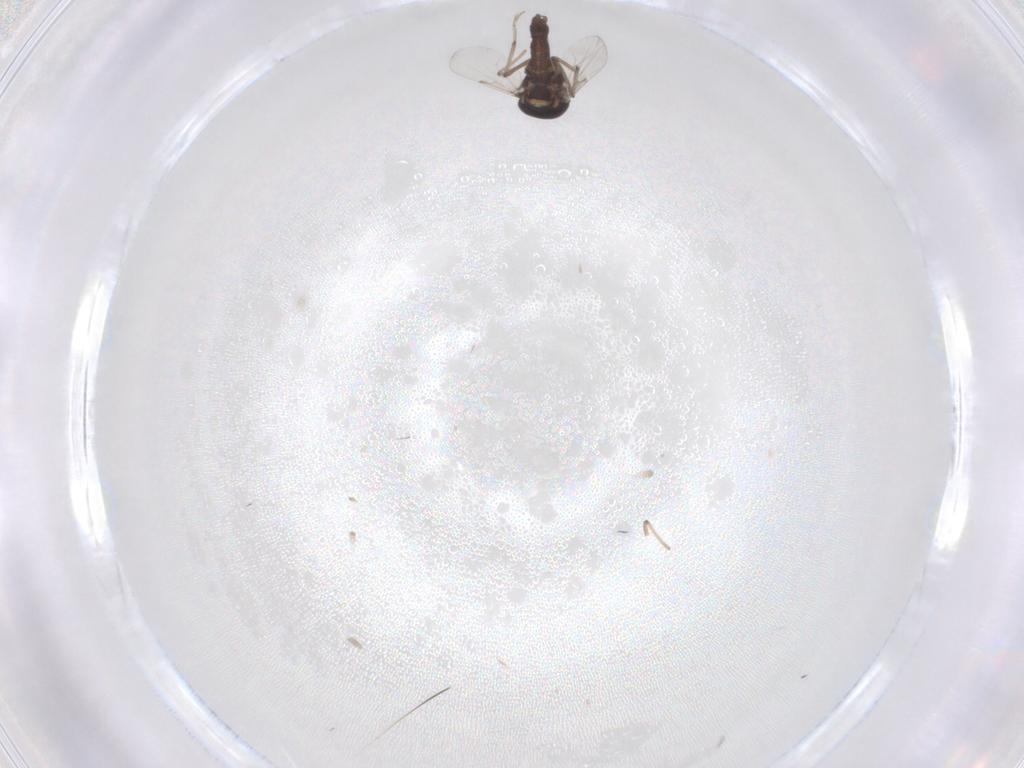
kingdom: Animalia
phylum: Arthropoda
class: Insecta
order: Diptera
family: Ceratopogonidae
